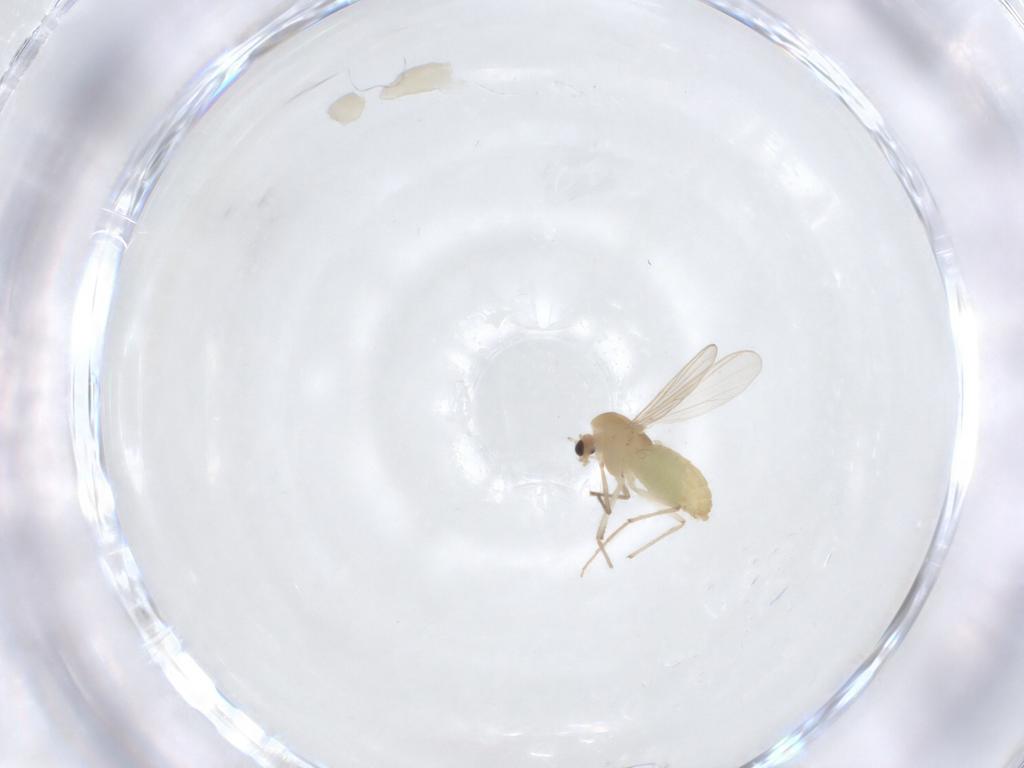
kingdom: Animalia
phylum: Arthropoda
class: Insecta
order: Diptera
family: Chironomidae
